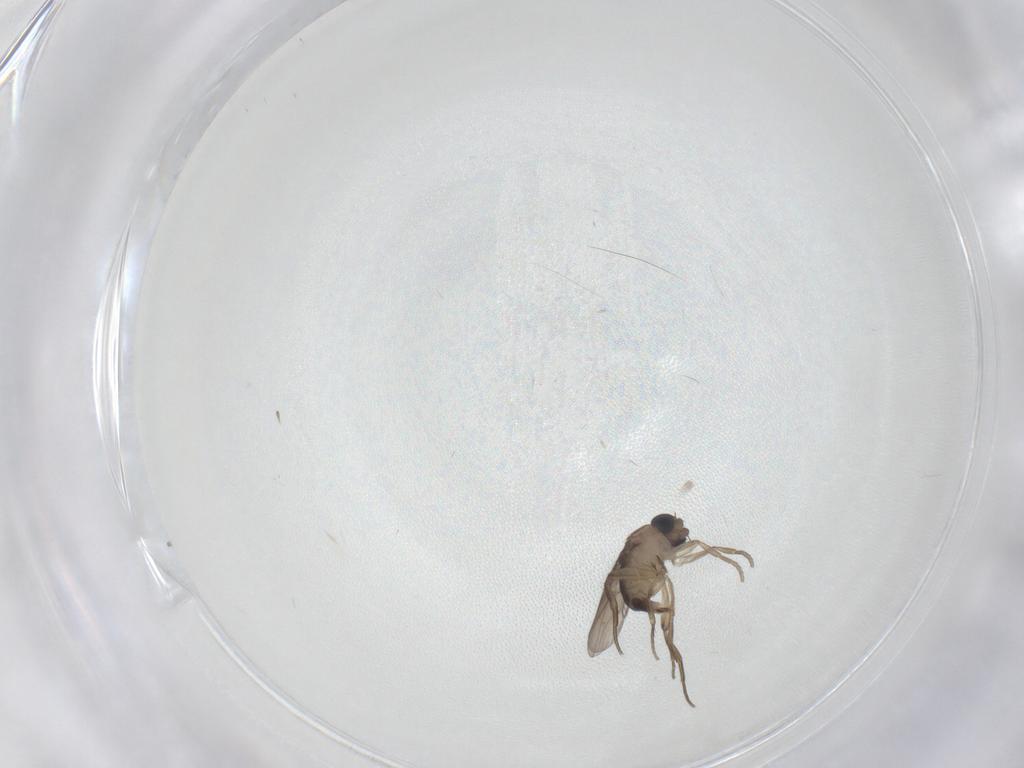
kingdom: Animalia
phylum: Arthropoda
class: Insecta
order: Diptera
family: Phoridae
